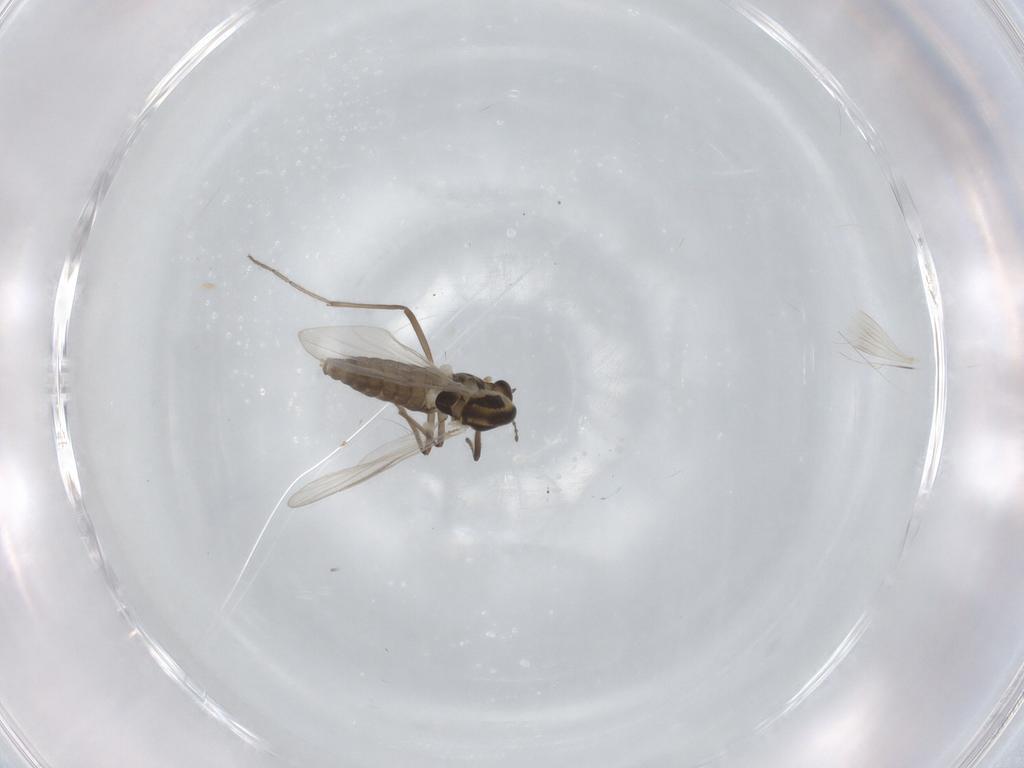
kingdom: Animalia
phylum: Arthropoda
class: Insecta
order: Diptera
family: Chironomidae
